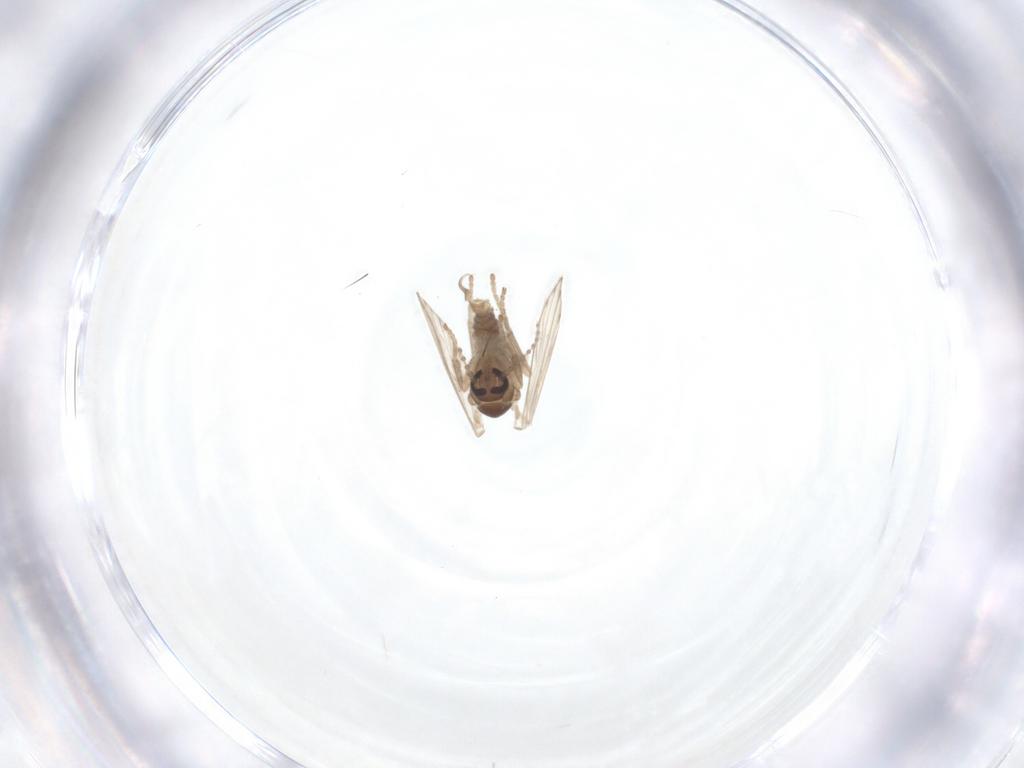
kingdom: Animalia
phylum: Arthropoda
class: Insecta
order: Diptera
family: Psychodidae
